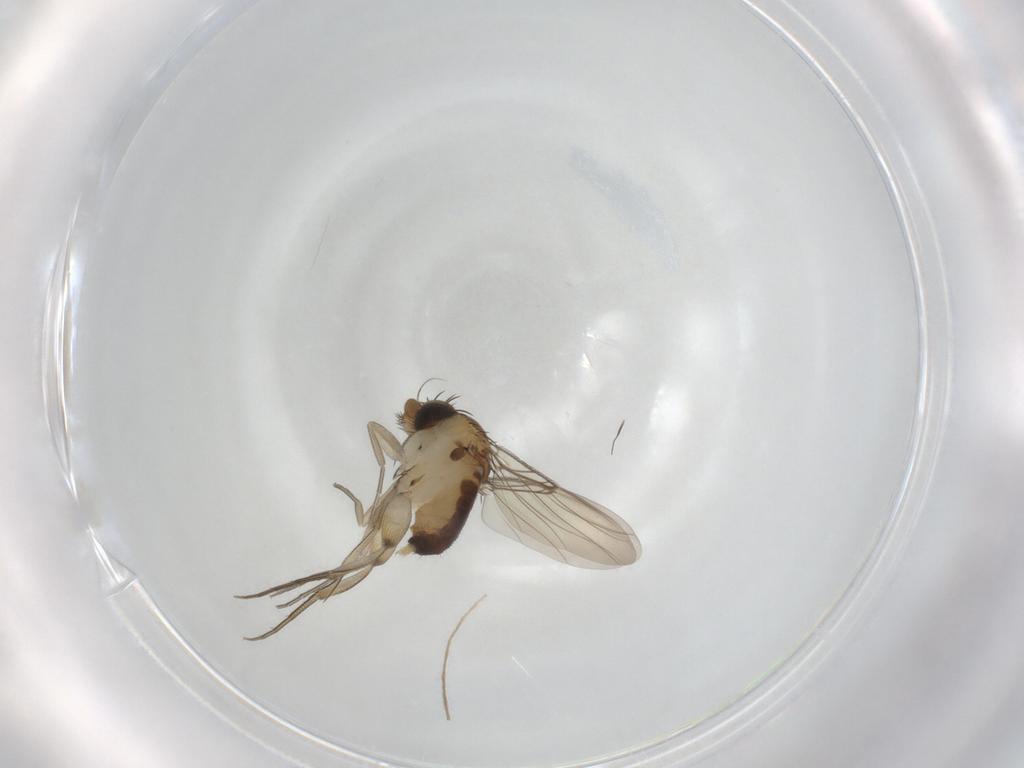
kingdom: Animalia
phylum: Arthropoda
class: Insecta
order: Diptera
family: Phoridae
